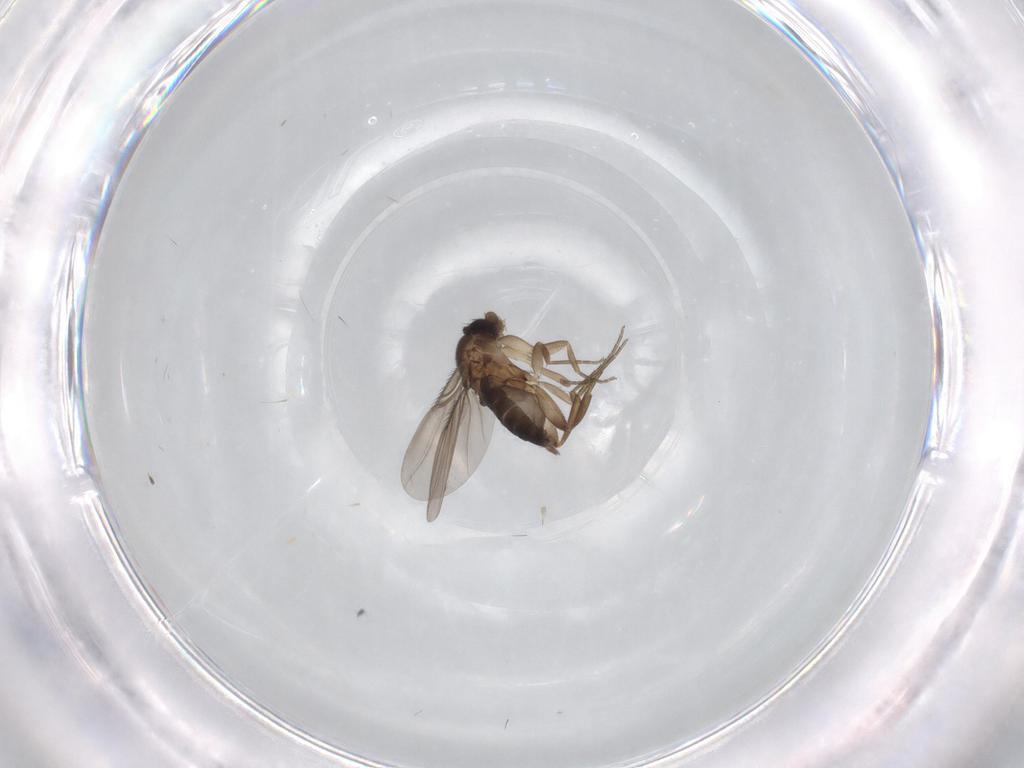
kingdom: Animalia
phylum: Arthropoda
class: Insecta
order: Diptera
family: Phoridae
